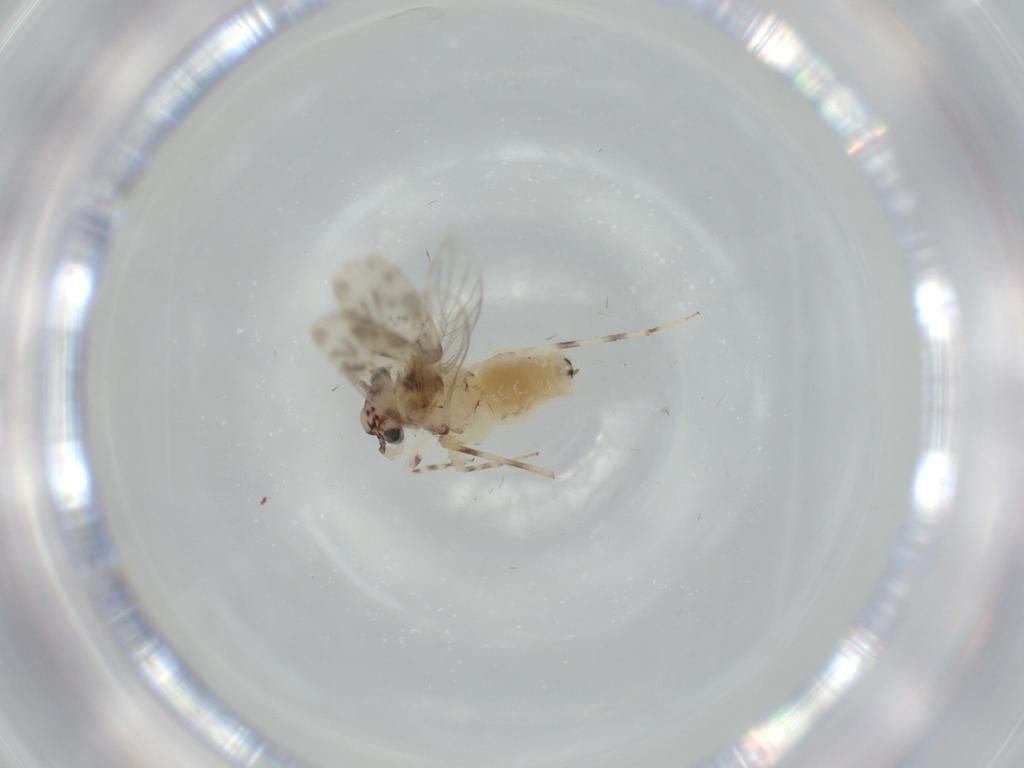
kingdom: Animalia
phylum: Arthropoda
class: Insecta
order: Psocodea
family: Lepidopsocidae
